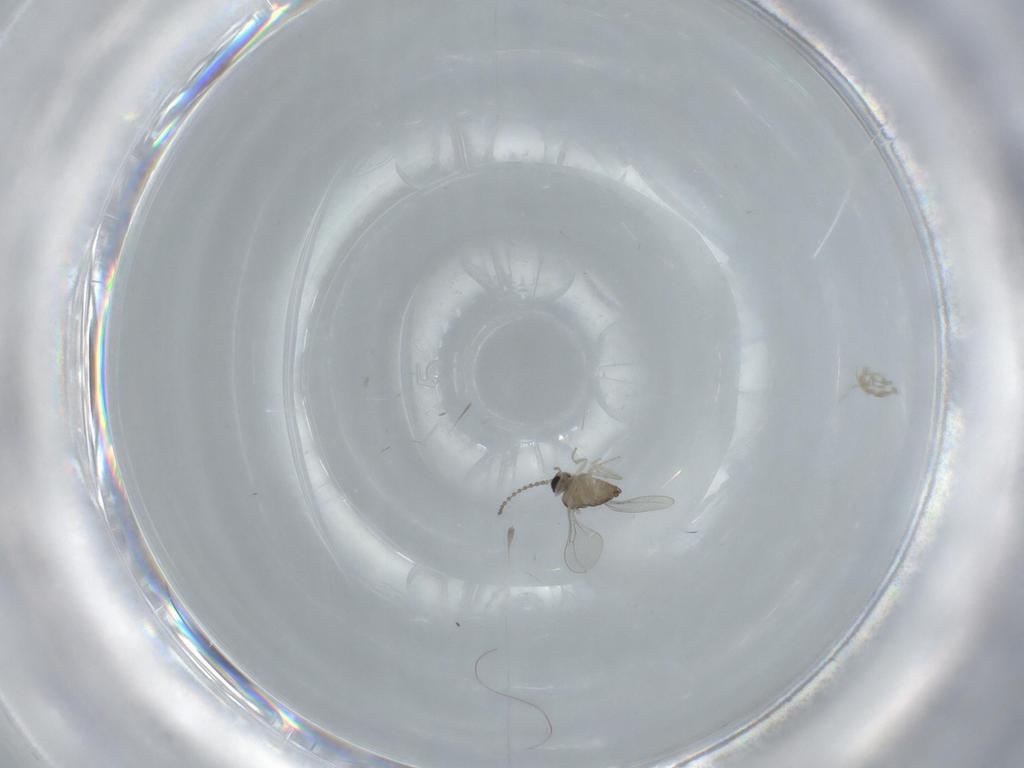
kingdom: Animalia
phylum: Arthropoda
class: Insecta
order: Diptera
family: Cecidomyiidae
